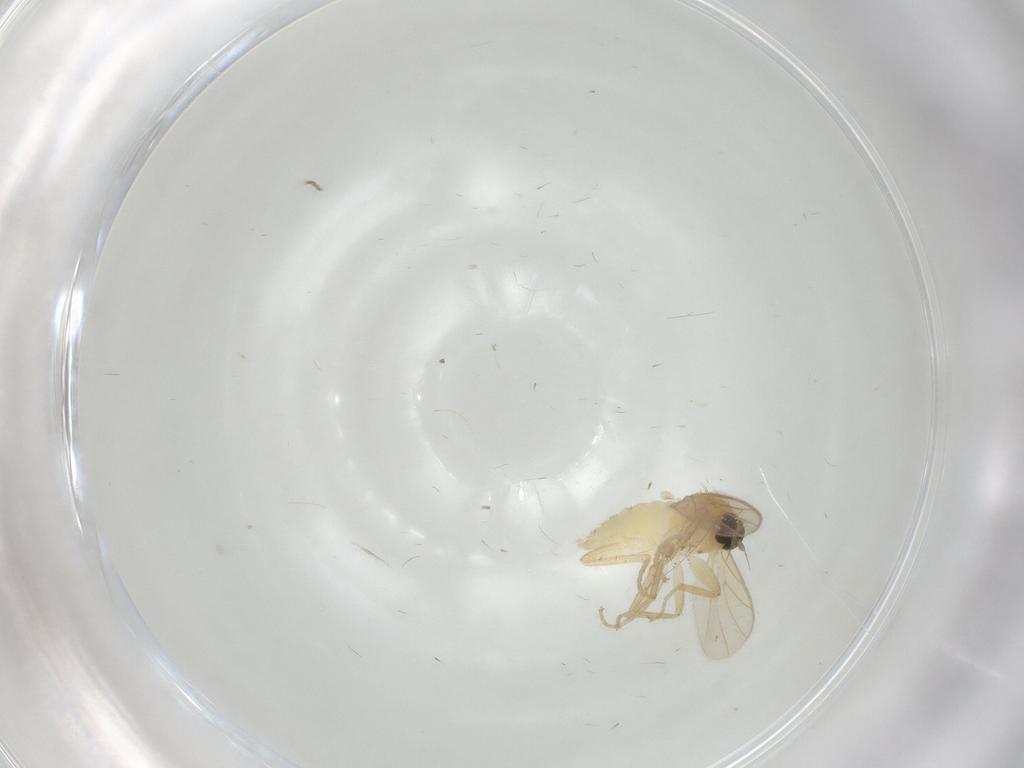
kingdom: Animalia
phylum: Arthropoda
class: Insecta
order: Diptera
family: Hybotidae
